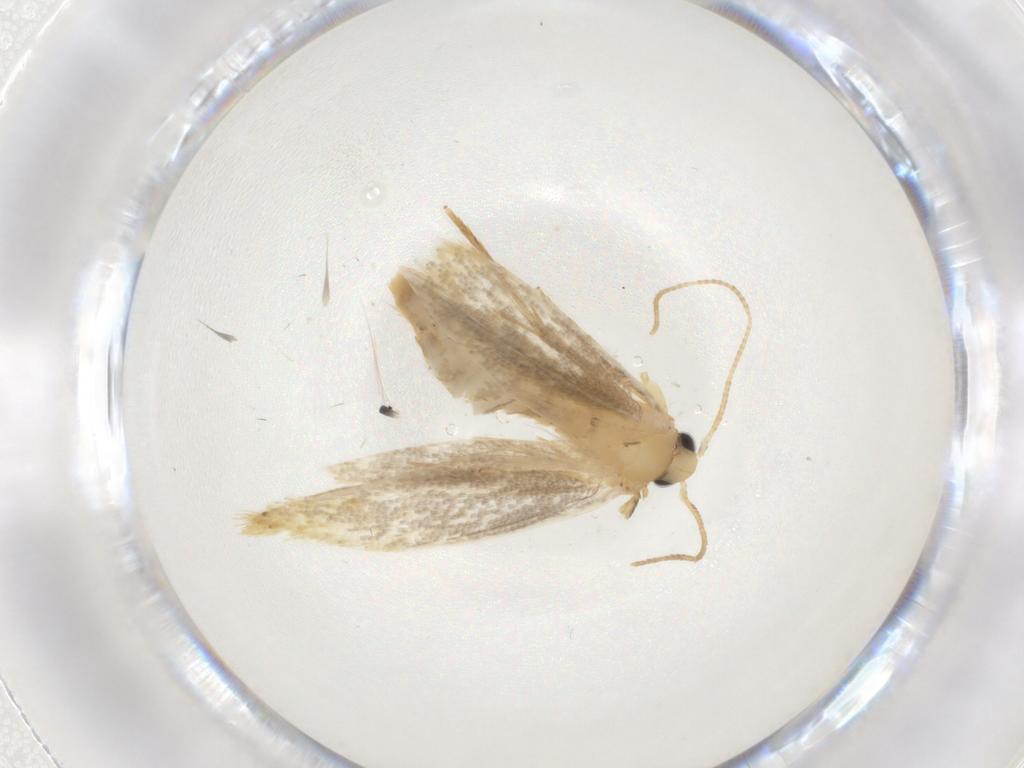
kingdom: Animalia
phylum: Arthropoda
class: Insecta
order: Lepidoptera
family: Tineidae
